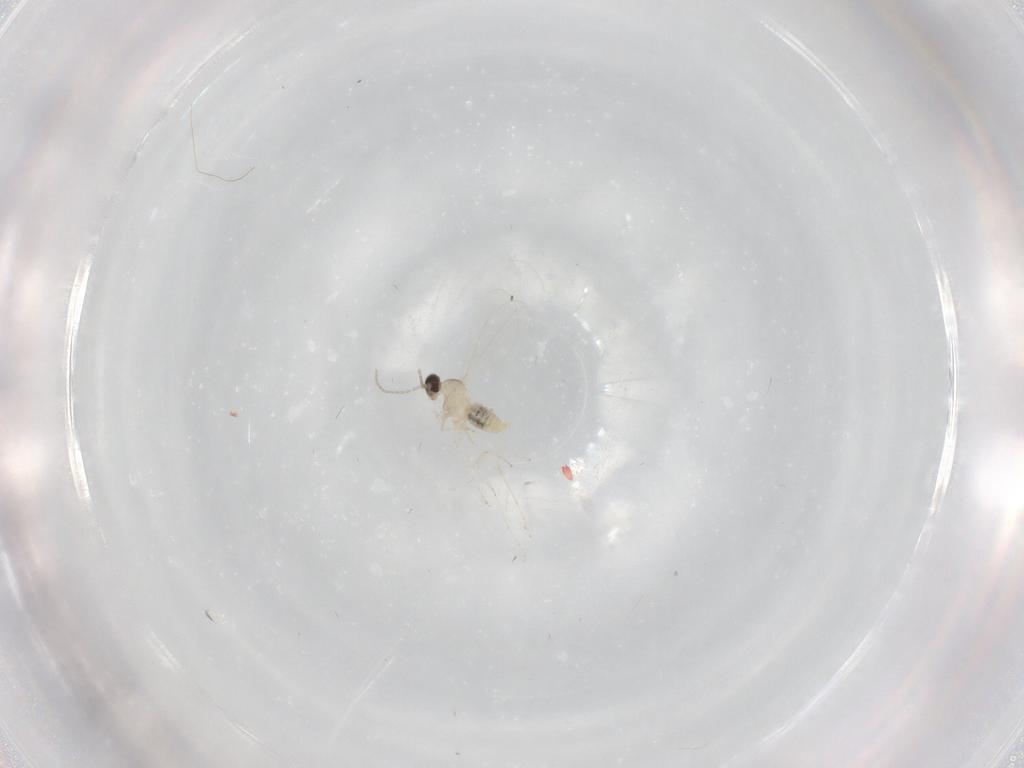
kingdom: Animalia
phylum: Arthropoda
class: Insecta
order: Diptera
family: Cecidomyiidae
